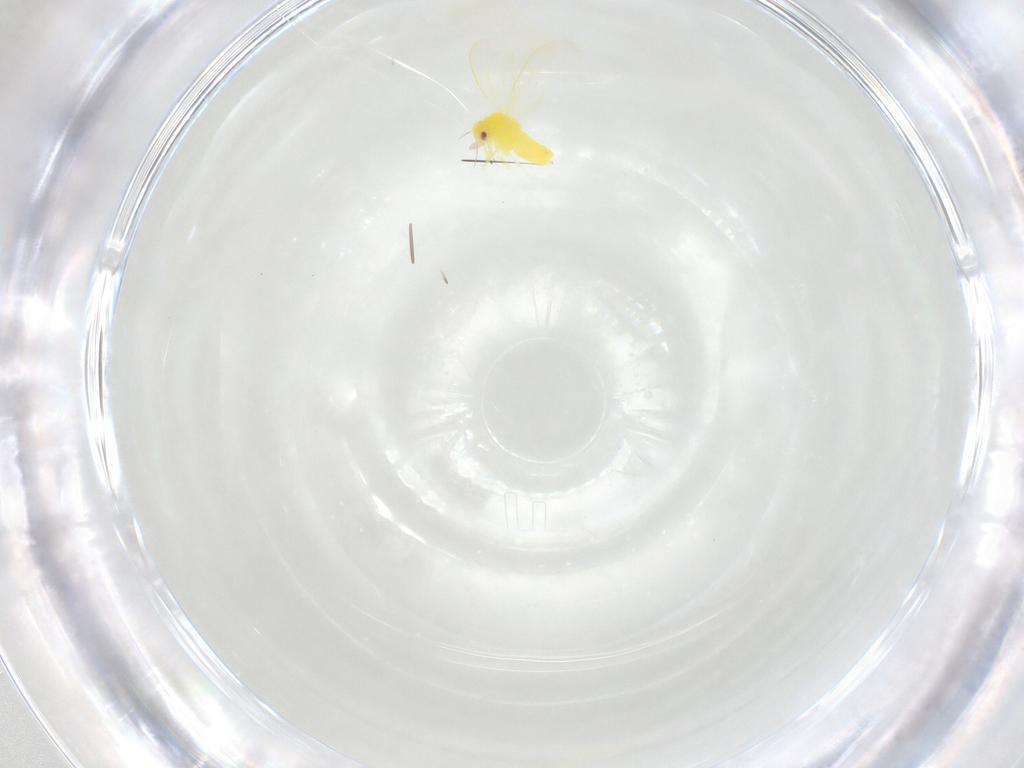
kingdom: Animalia
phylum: Arthropoda
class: Insecta
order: Hemiptera
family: Aleyrodidae
